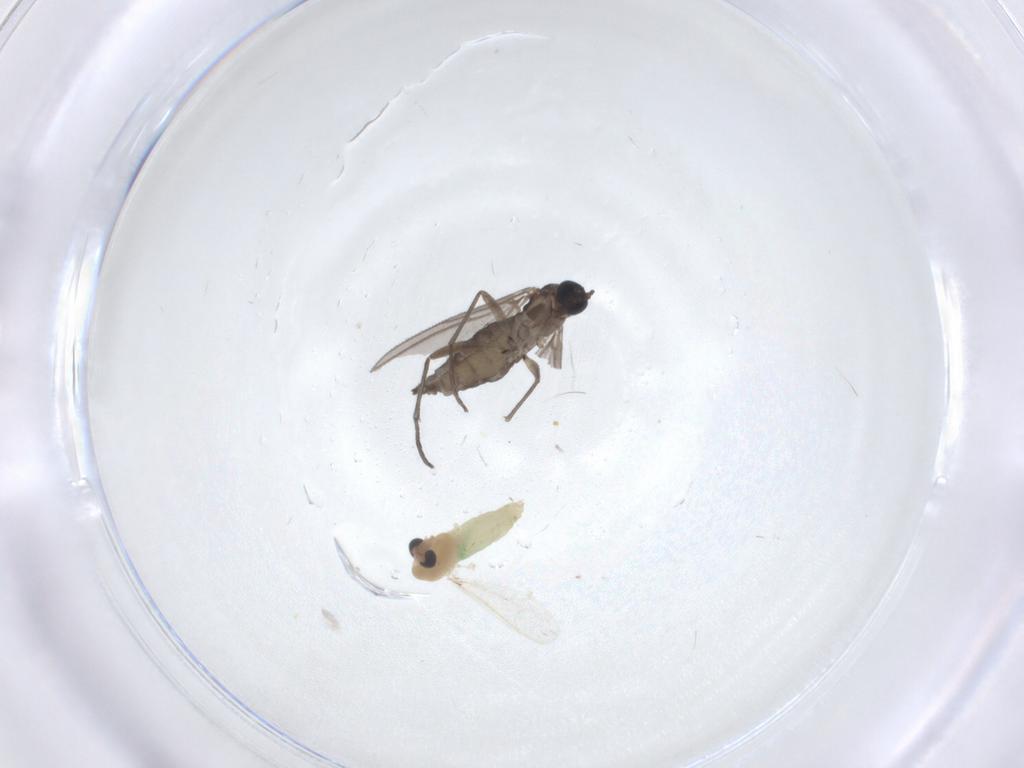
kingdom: Animalia
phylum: Arthropoda
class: Insecta
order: Diptera
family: Chironomidae
